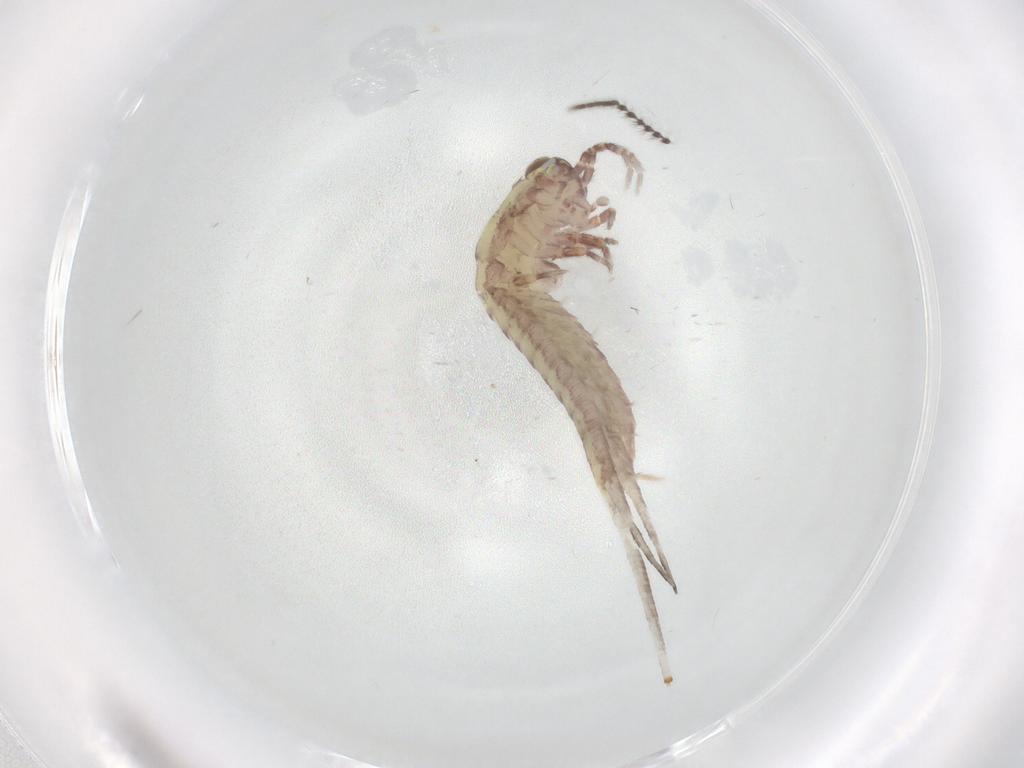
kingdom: Animalia
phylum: Arthropoda
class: Insecta
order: Archaeognatha
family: Machilidae
